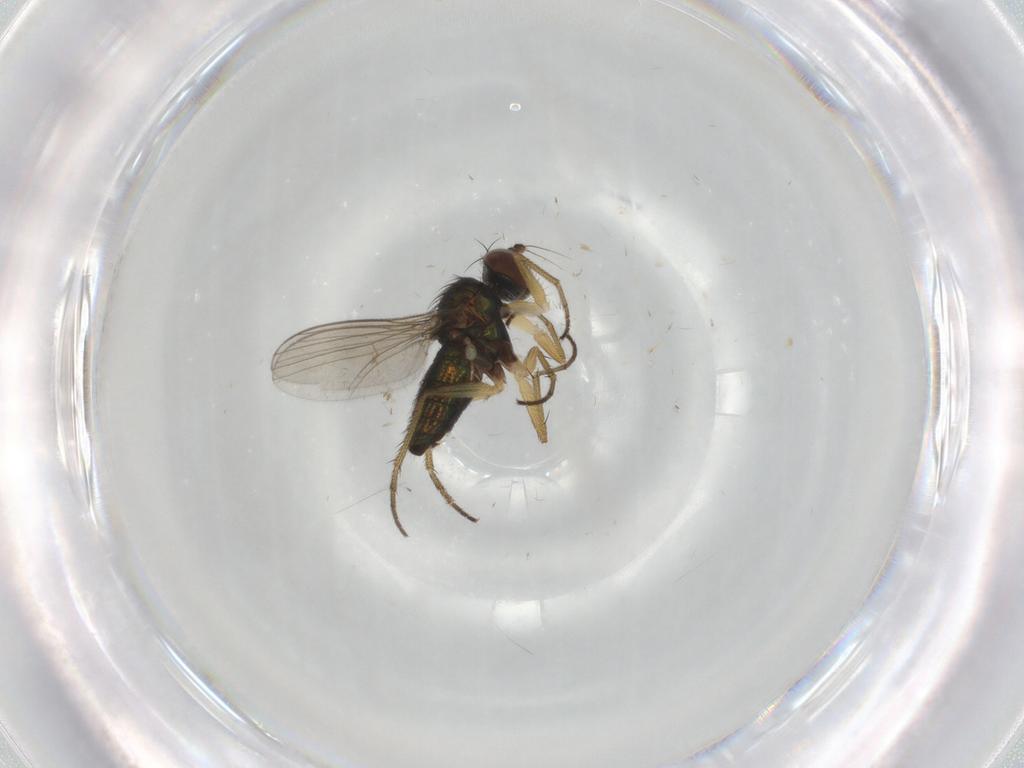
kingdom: Animalia
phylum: Arthropoda
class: Insecta
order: Diptera
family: Dolichopodidae
